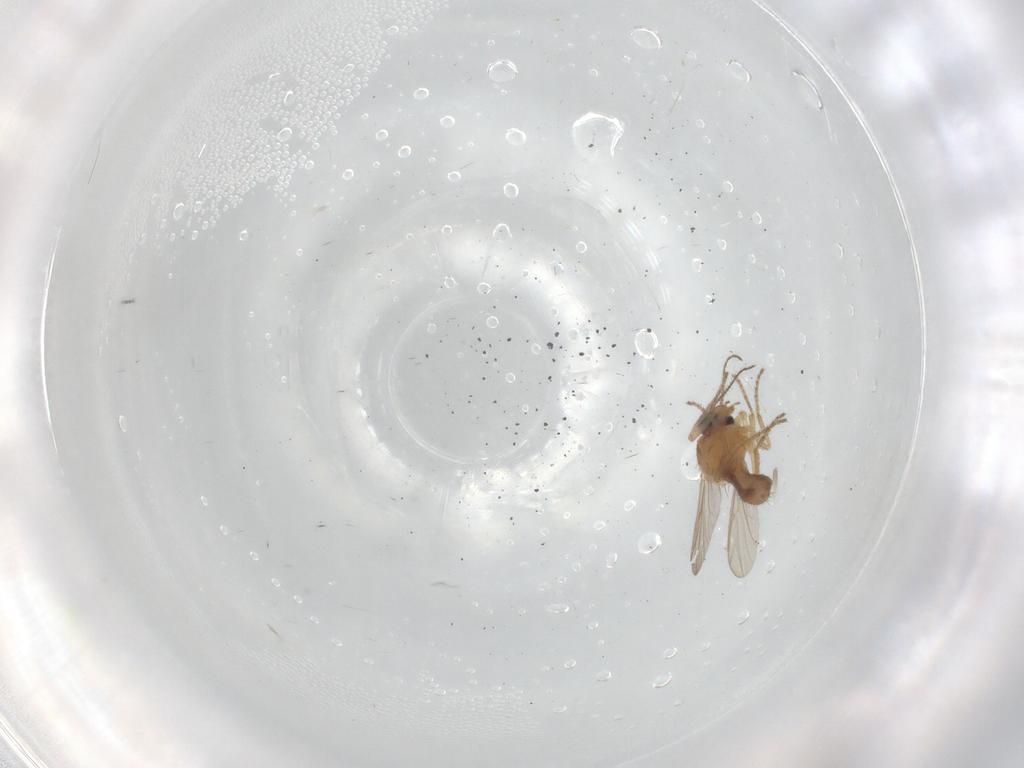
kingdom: Animalia
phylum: Arthropoda
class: Insecta
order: Diptera
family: Ceratopogonidae
